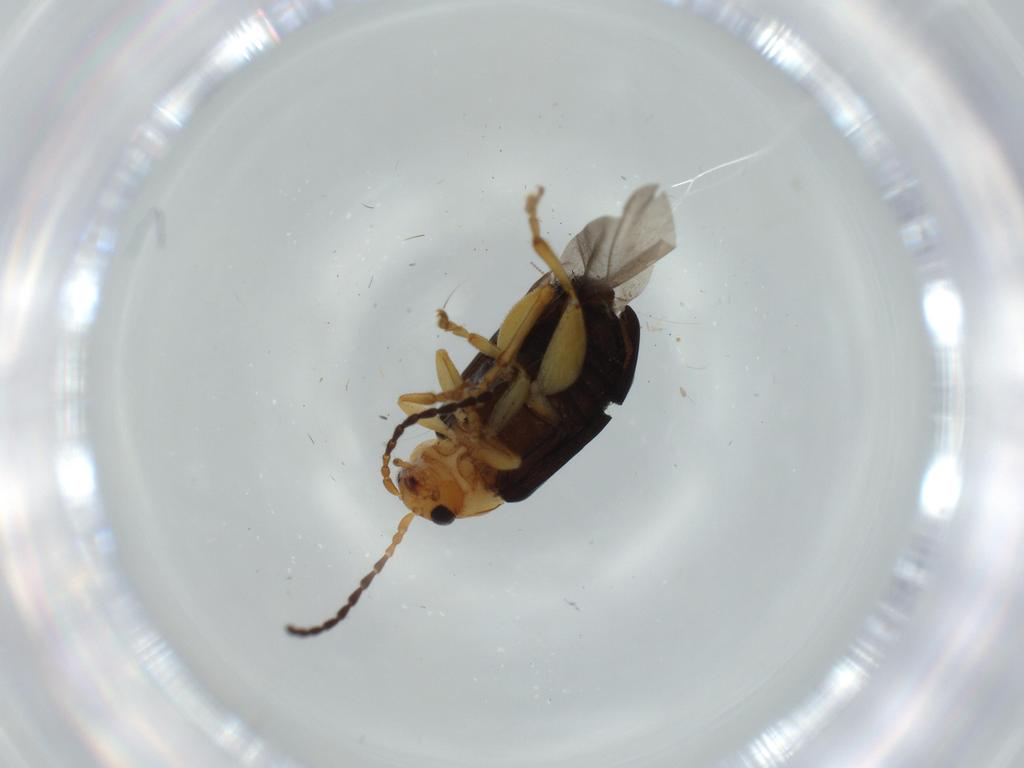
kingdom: Animalia
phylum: Arthropoda
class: Insecta
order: Coleoptera
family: Chrysomelidae
